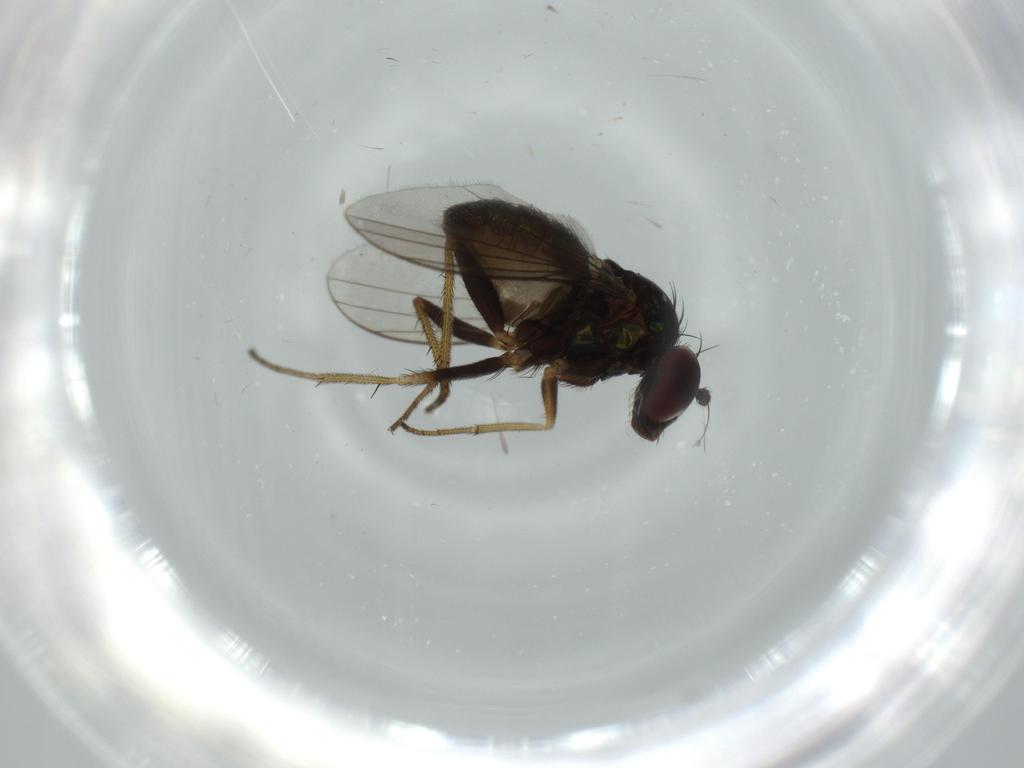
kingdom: Animalia
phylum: Arthropoda
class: Insecta
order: Diptera
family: Dolichopodidae
